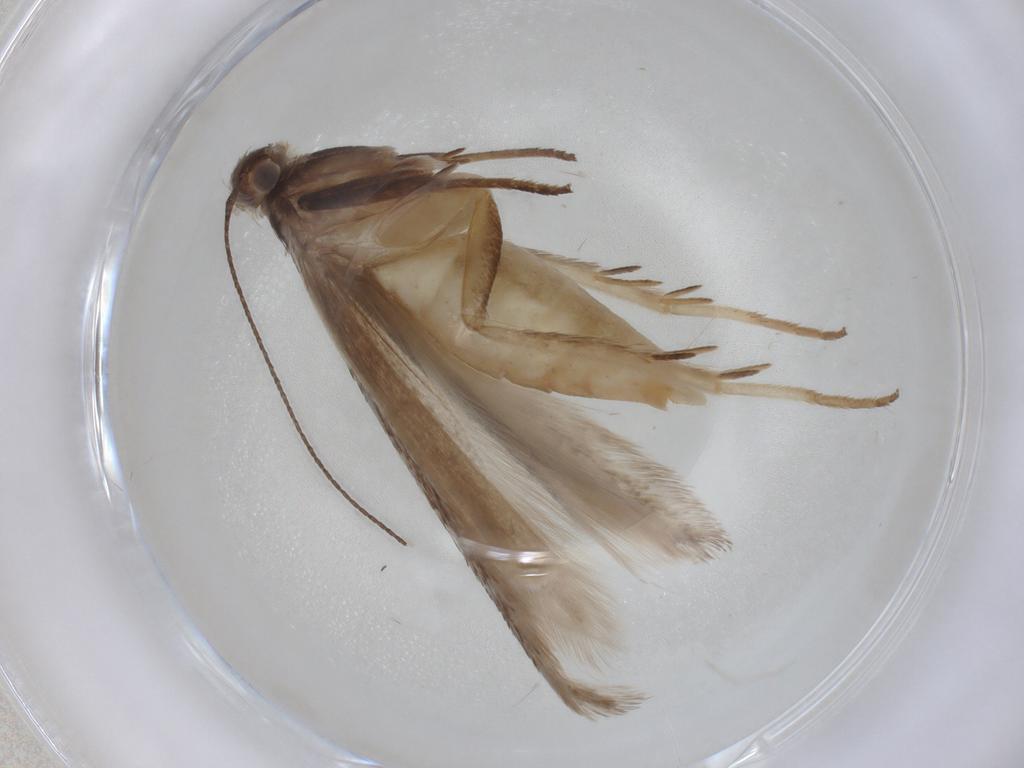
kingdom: Animalia
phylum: Arthropoda
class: Insecta
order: Lepidoptera
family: Gelechiidae
